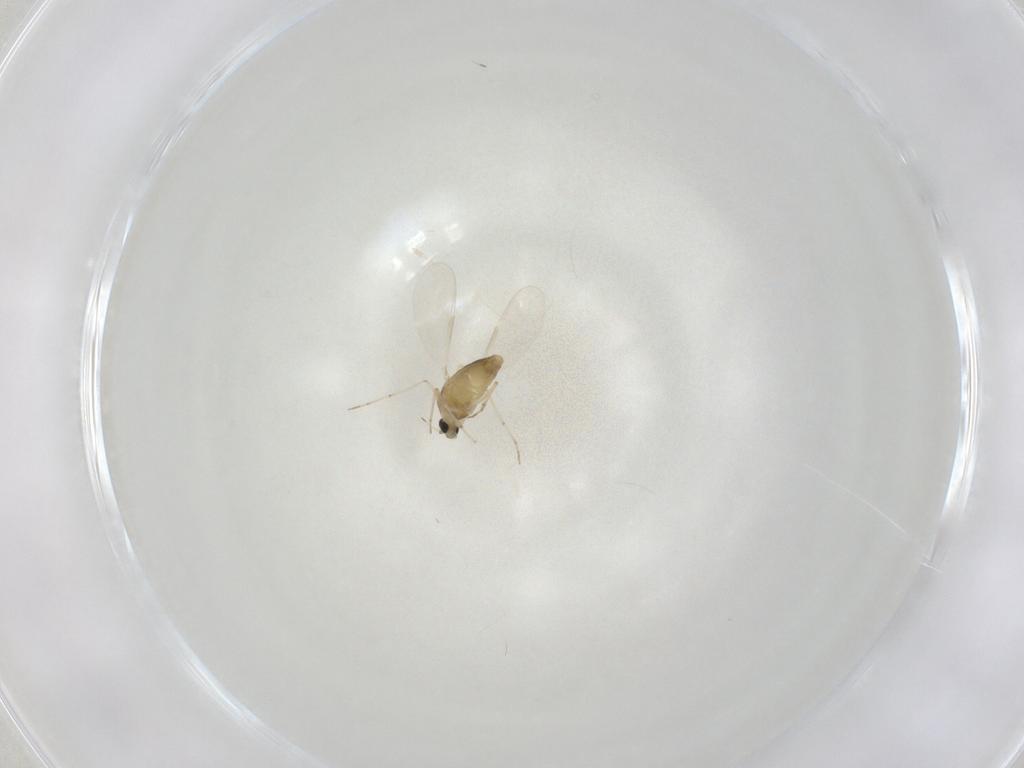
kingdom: Animalia
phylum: Arthropoda
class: Insecta
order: Diptera
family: Chironomidae
